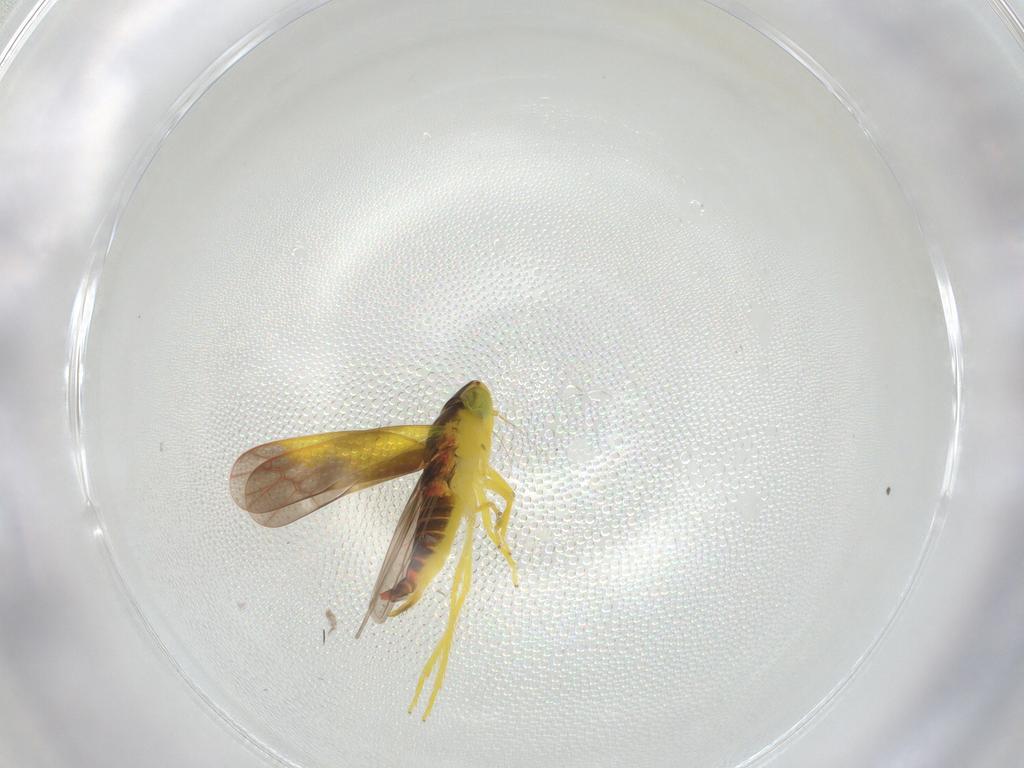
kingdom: Animalia
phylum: Arthropoda
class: Insecta
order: Hemiptera
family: Cicadellidae
